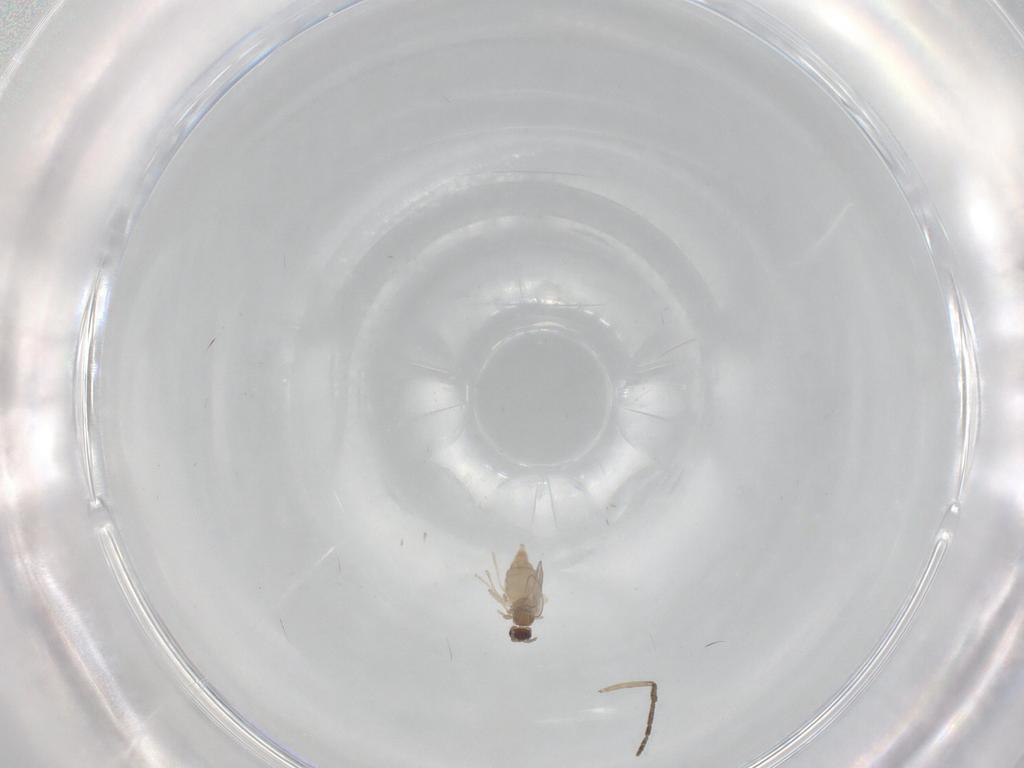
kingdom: Animalia
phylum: Arthropoda
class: Insecta
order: Diptera
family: Cecidomyiidae
